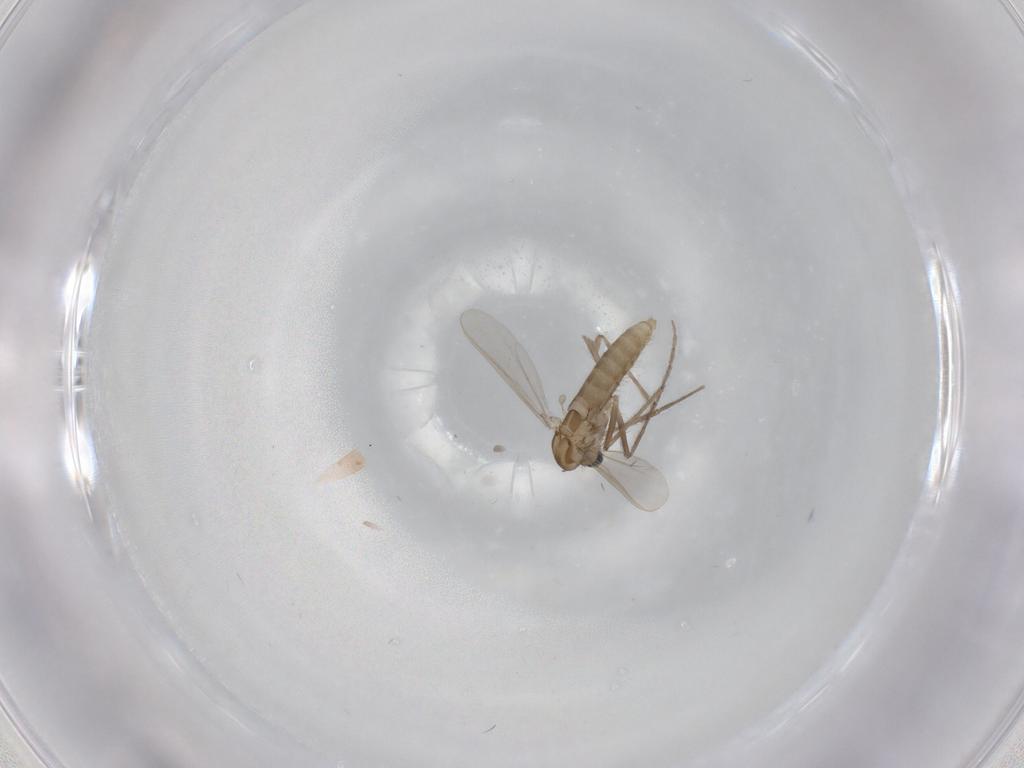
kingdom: Animalia
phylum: Arthropoda
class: Insecta
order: Diptera
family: Chironomidae
